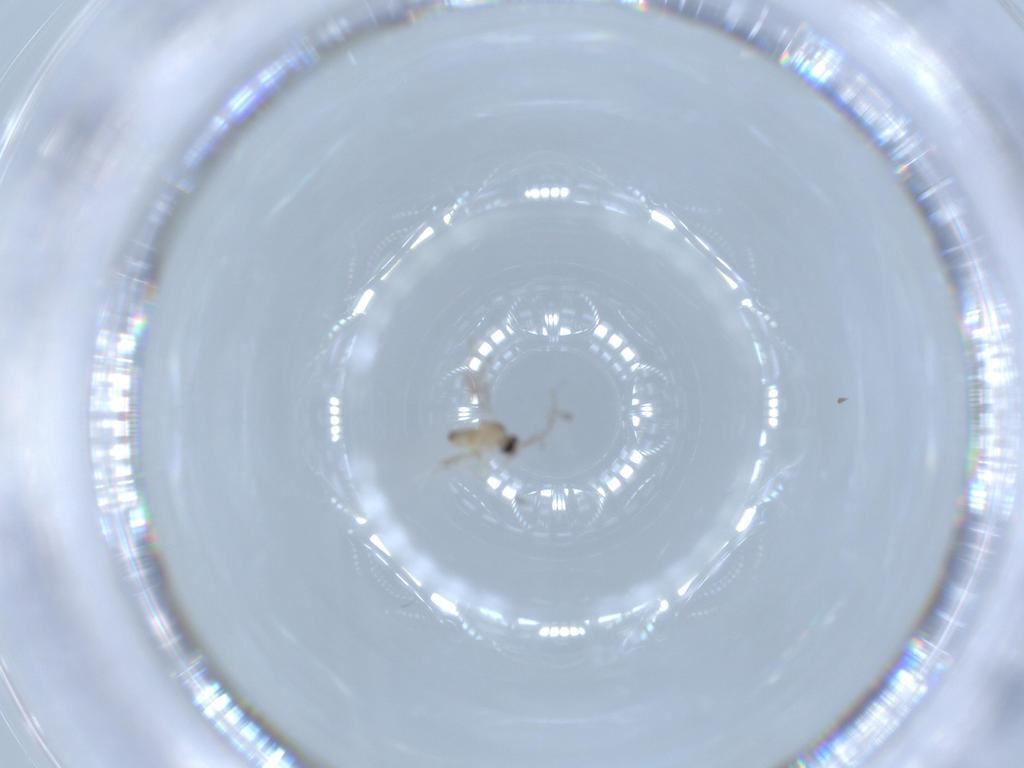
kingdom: Animalia
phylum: Arthropoda
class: Insecta
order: Diptera
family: Cecidomyiidae
